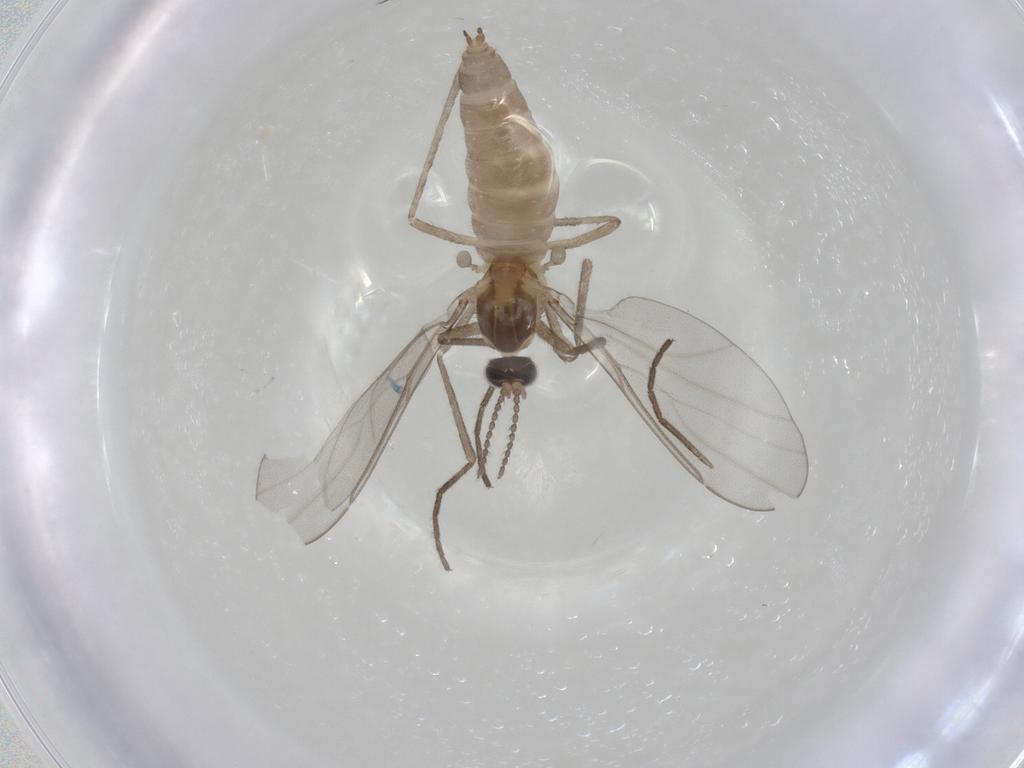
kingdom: Animalia
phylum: Arthropoda
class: Insecta
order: Diptera
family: Cecidomyiidae
